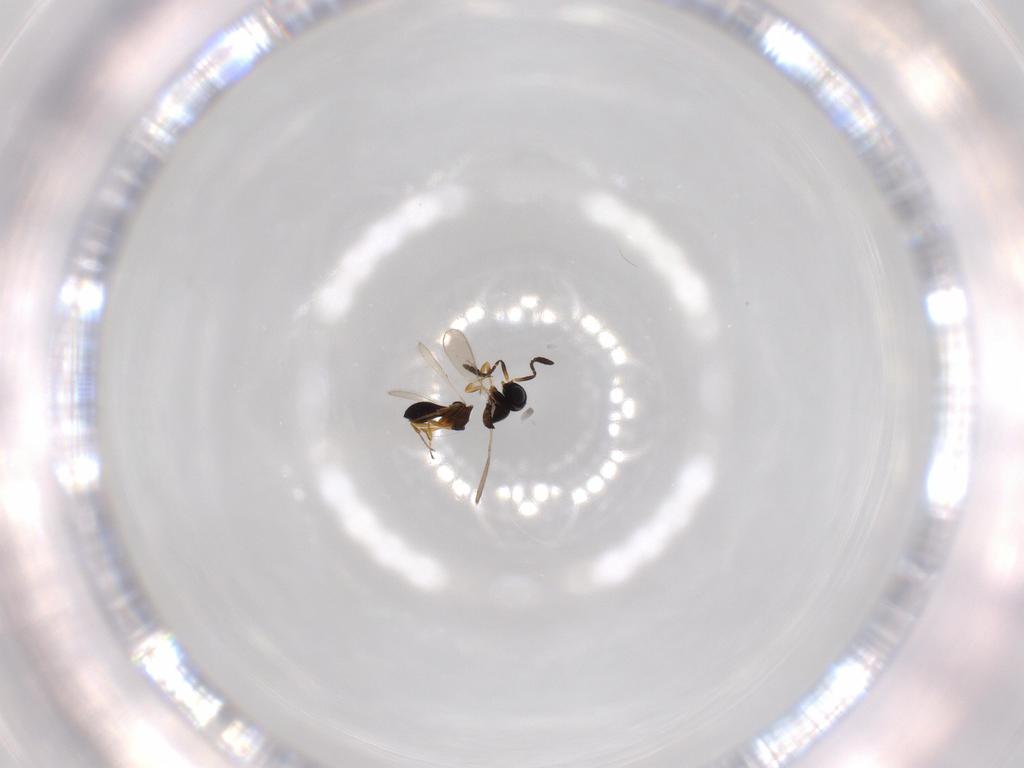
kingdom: Animalia
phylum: Arthropoda
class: Insecta
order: Hymenoptera
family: Scelionidae
